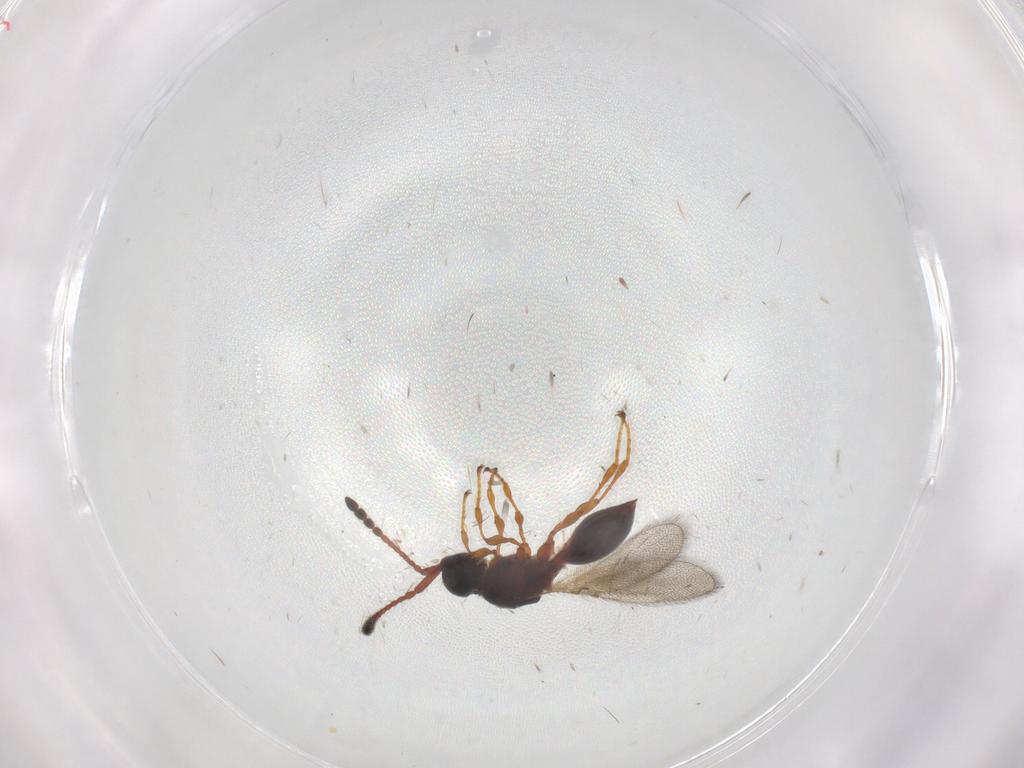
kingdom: Animalia
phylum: Arthropoda
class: Insecta
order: Hymenoptera
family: Diapriidae
